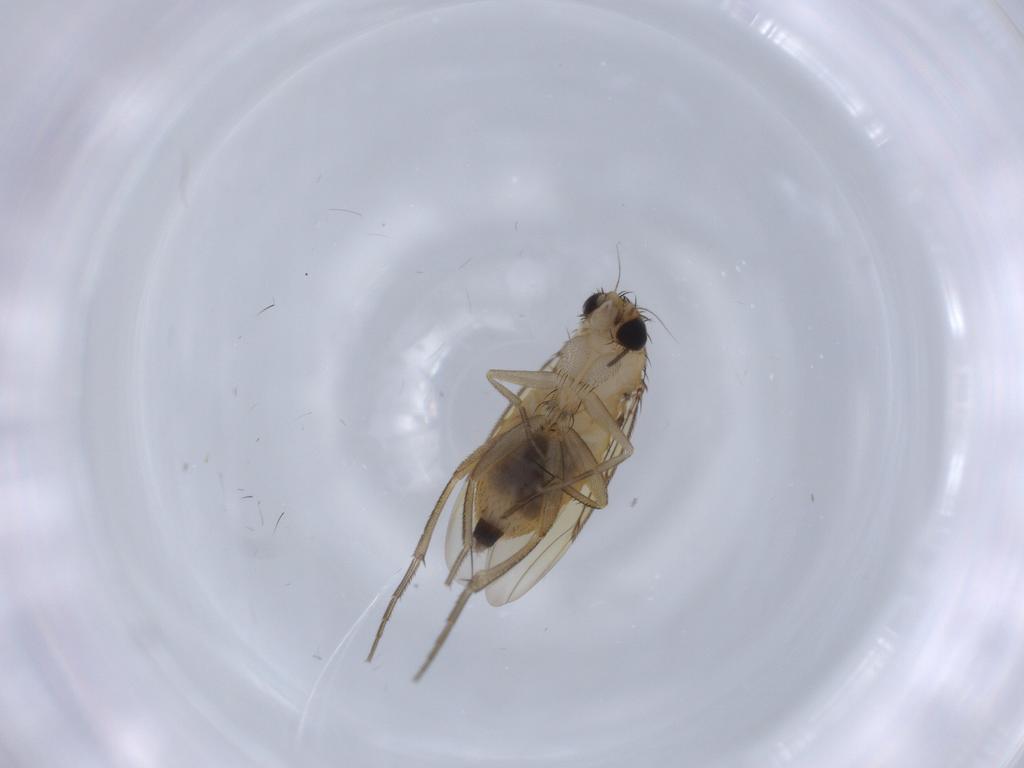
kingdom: Animalia
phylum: Arthropoda
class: Insecta
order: Diptera
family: Phoridae
